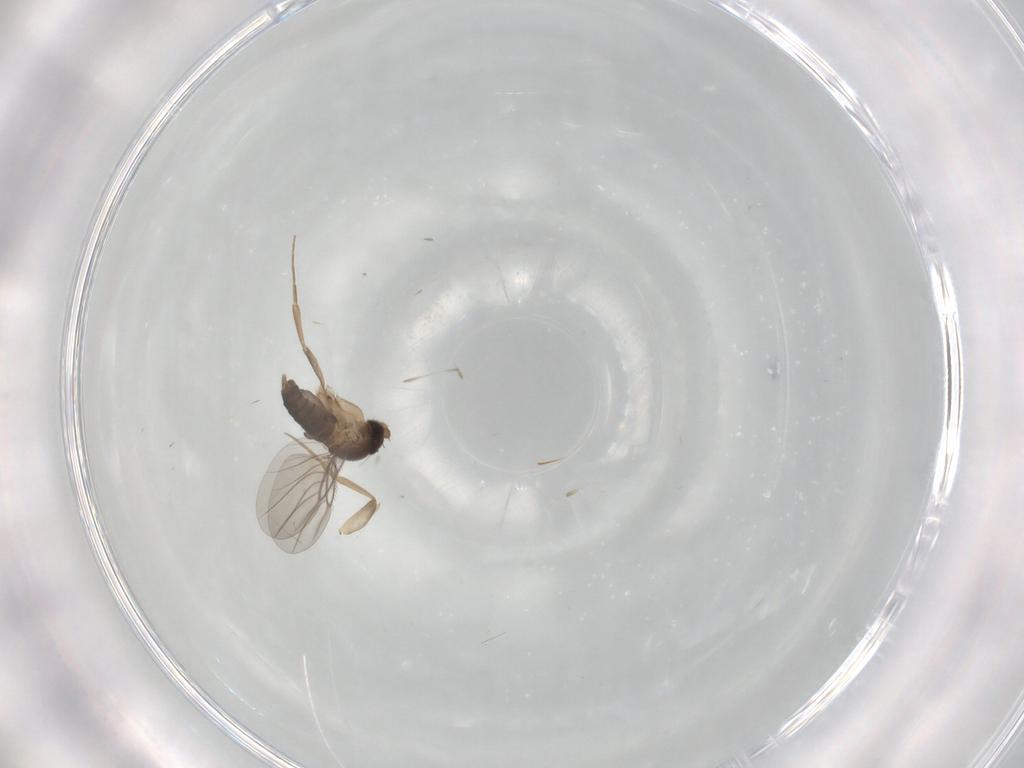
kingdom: Animalia
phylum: Arthropoda
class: Insecta
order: Diptera
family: Phoridae
